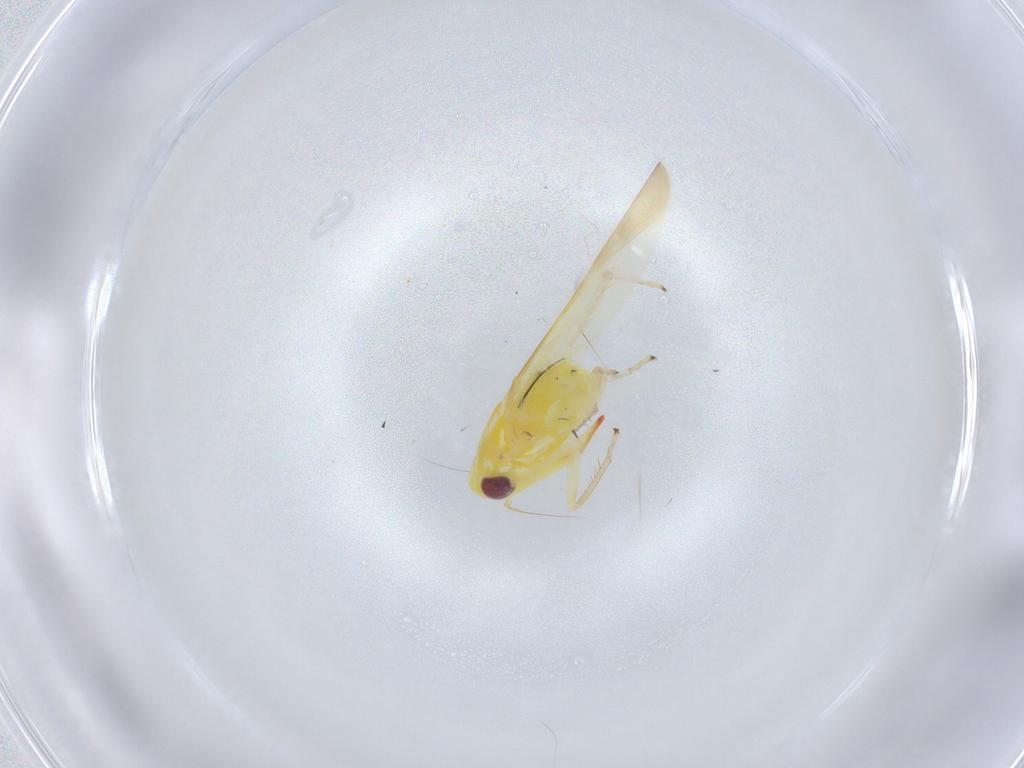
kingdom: Animalia
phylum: Arthropoda
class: Insecta
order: Hemiptera
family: Cicadellidae
